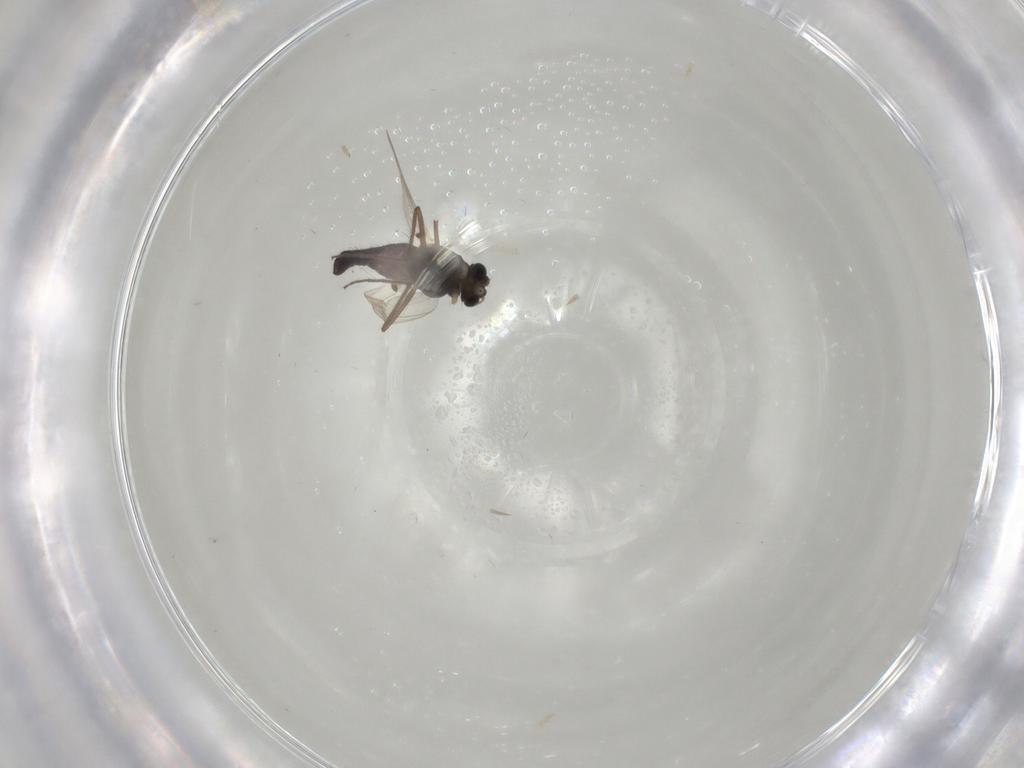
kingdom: Animalia
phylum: Arthropoda
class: Insecta
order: Diptera
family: Chironomidae
